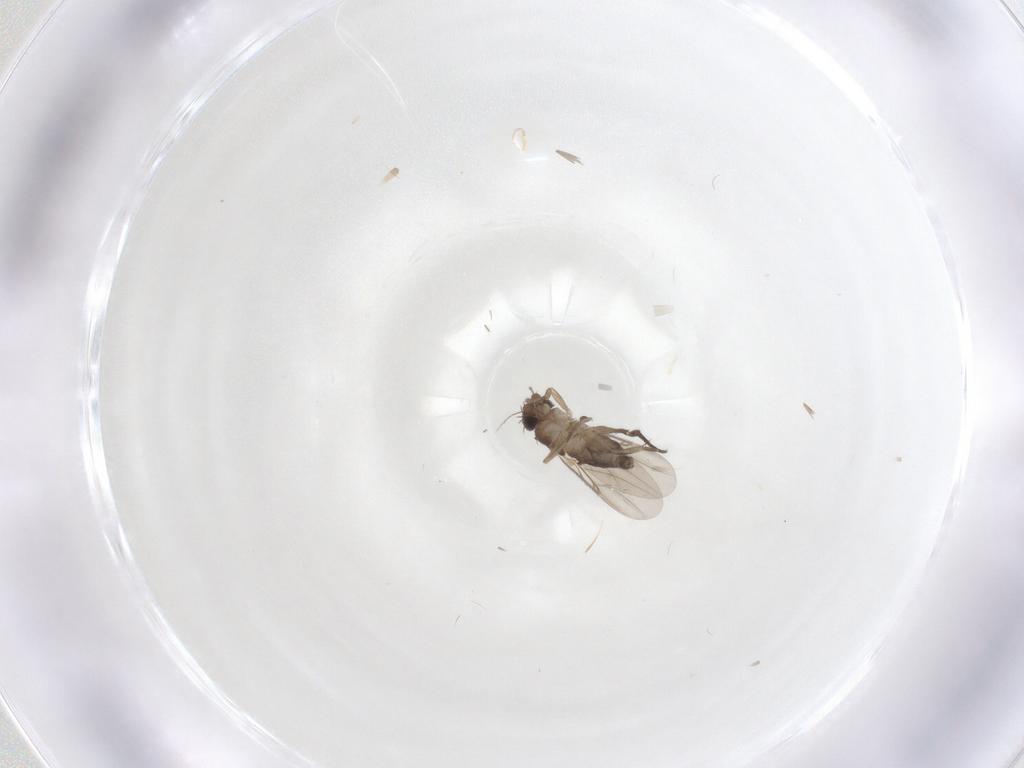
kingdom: Animalia
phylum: Arthropoda
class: Insecta
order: Diptera
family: Phoridae
